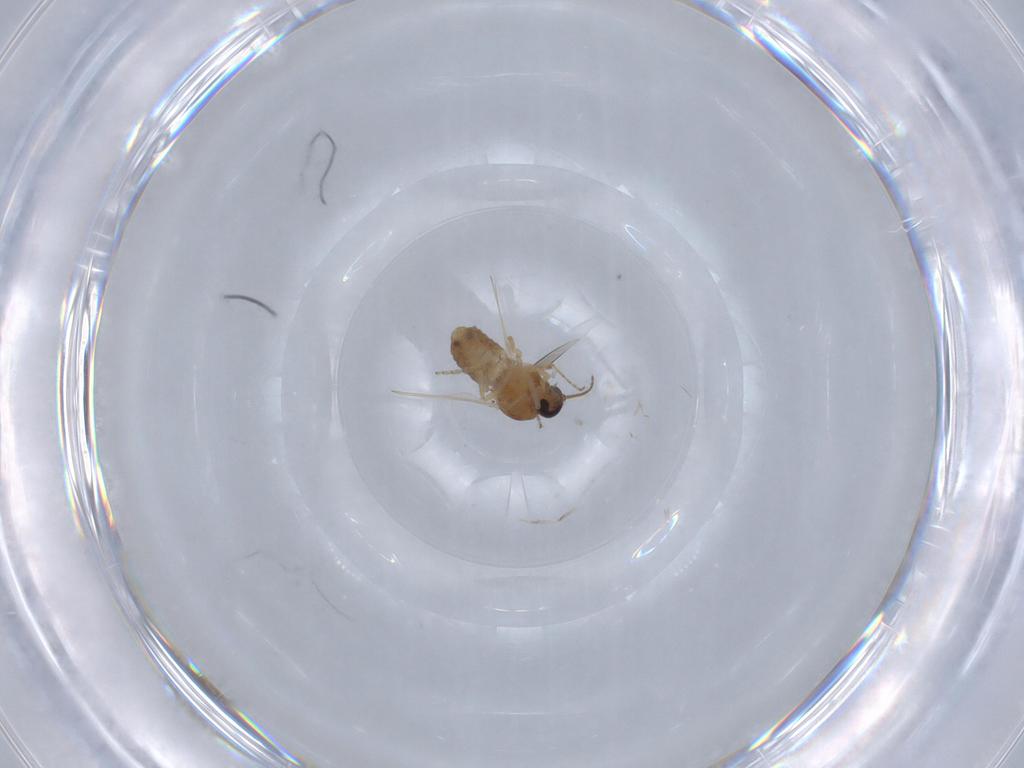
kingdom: Animalia
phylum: Arthropoda
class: Insecta
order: Diptera
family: Ceratopogonidae
